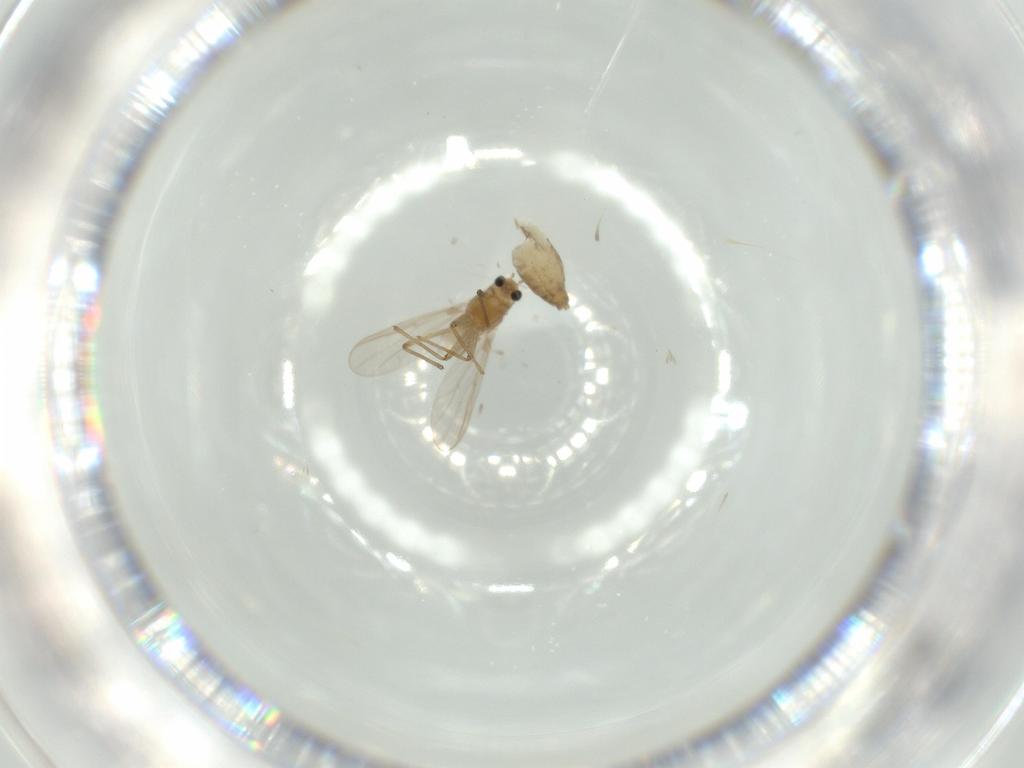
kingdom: Animalia
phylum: Arthropoda
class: Insecta
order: Diptera
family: Chironomidae
